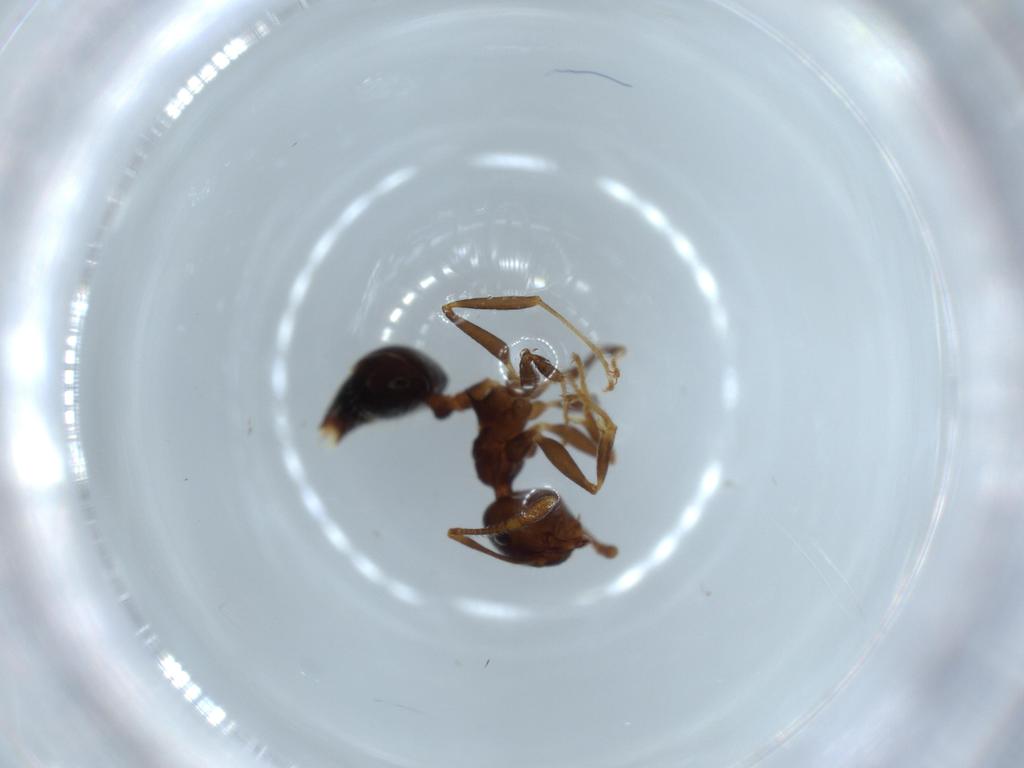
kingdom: Animalia
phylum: Arthropoda
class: Insecta
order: Hymenoptera
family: Formicidae
